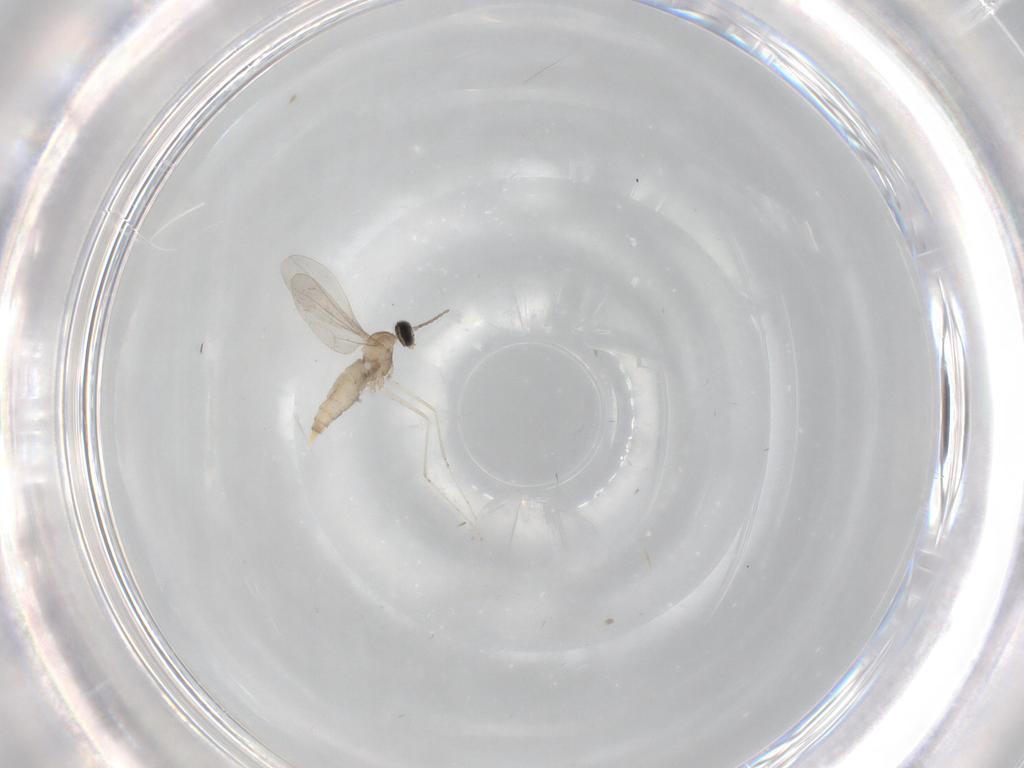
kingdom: Animalia
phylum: Arthropoda
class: Insecta
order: Diptera
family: Cecidomyiidae
